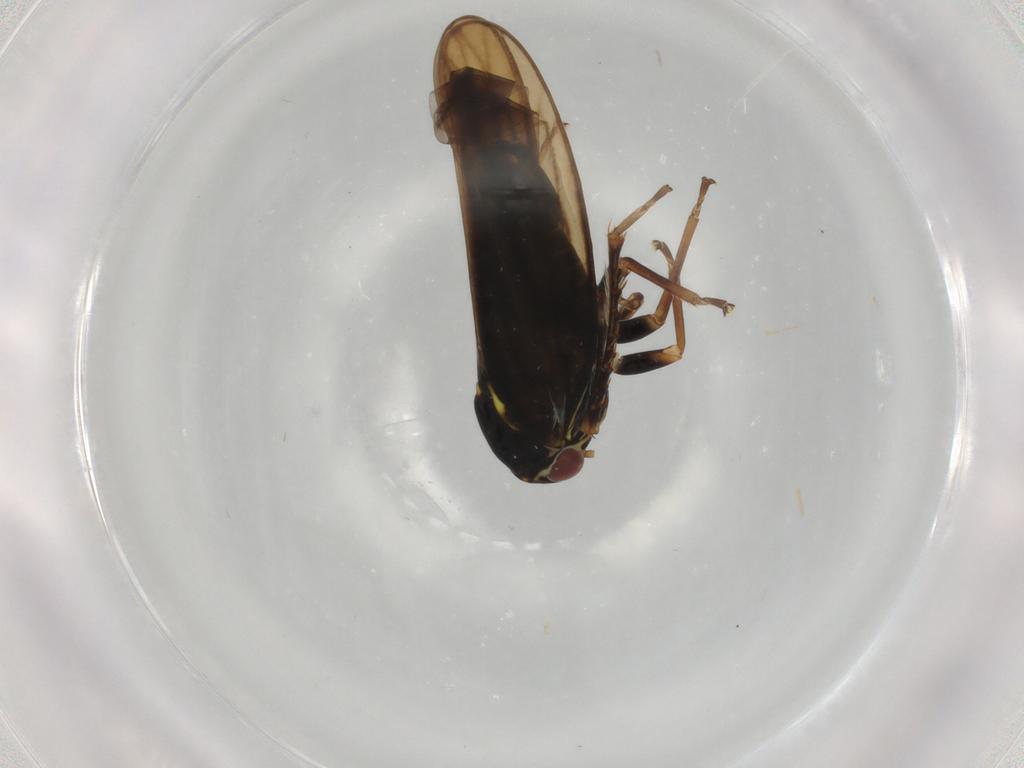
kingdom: Animalia
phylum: Arthropoda
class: Insecta
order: Hemiptera
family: Cicadellidae
